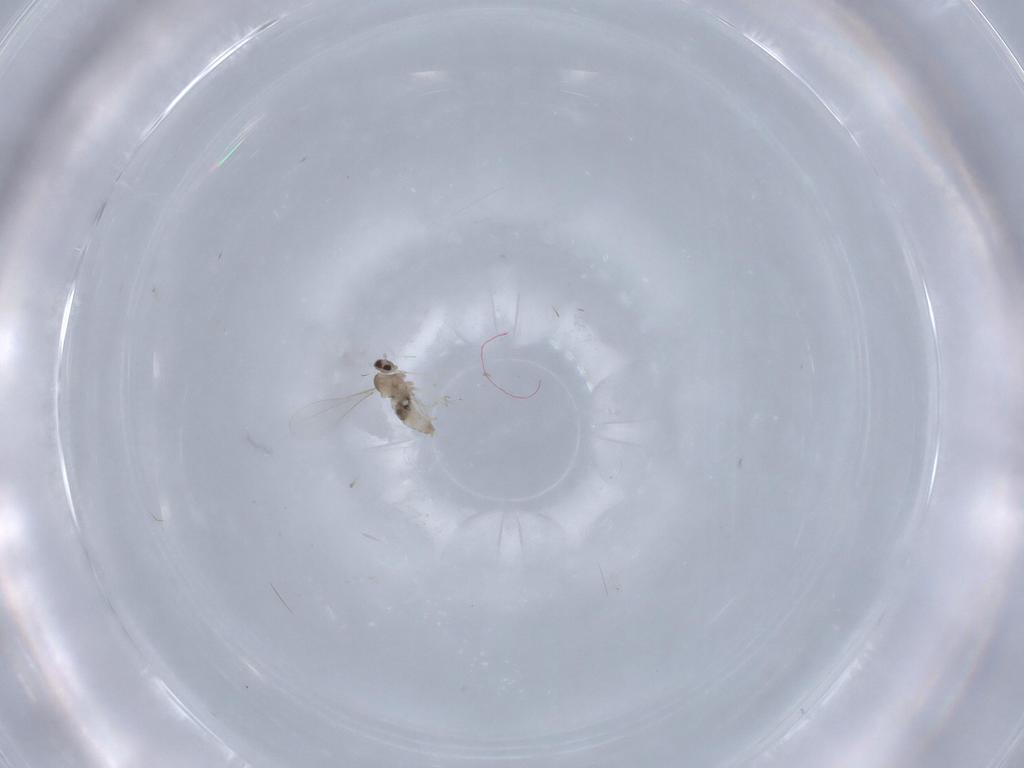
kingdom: Animalia
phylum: Arthropoda
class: Insecta
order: Diptera
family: Cecidomyiidae
